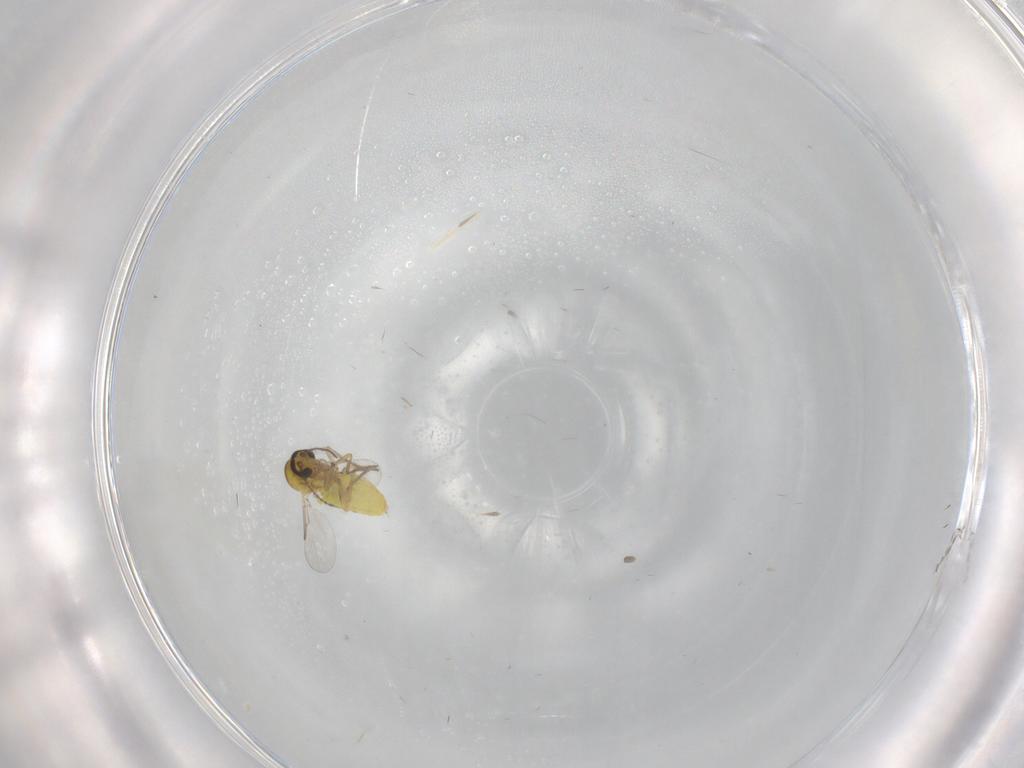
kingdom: Animalia
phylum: Arthropoda
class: Insecta
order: Diptera
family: Ceratopogonidae
